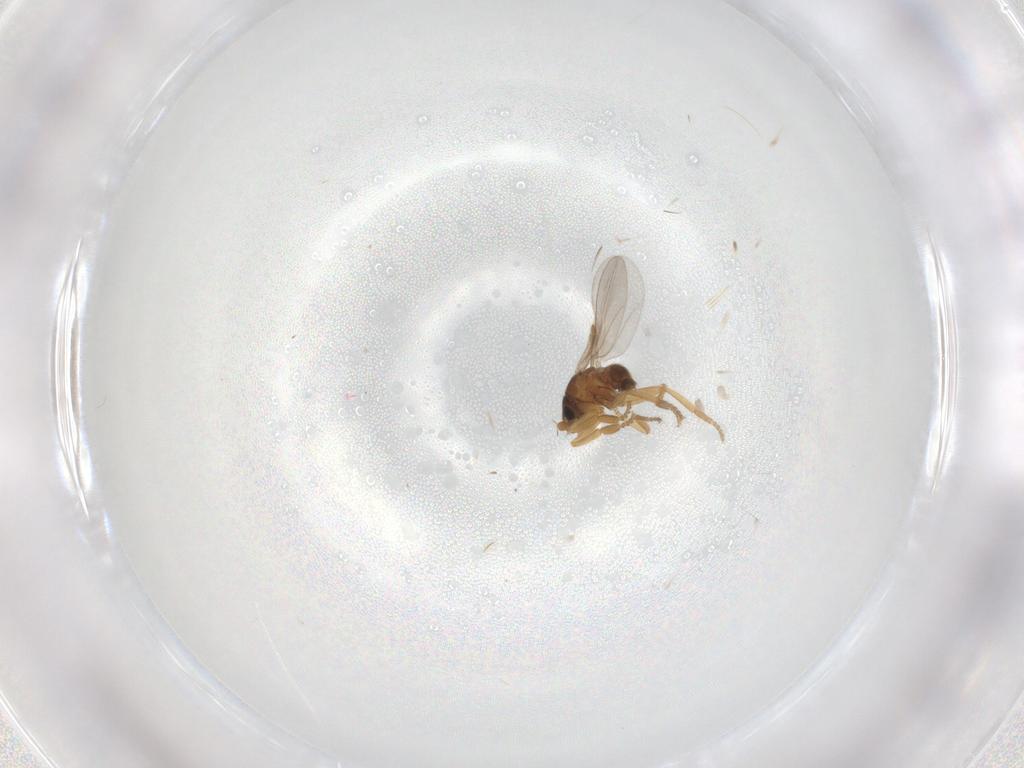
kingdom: Animalia
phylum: Arthropoda
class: Insecta
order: Diptera
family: Phoridae
